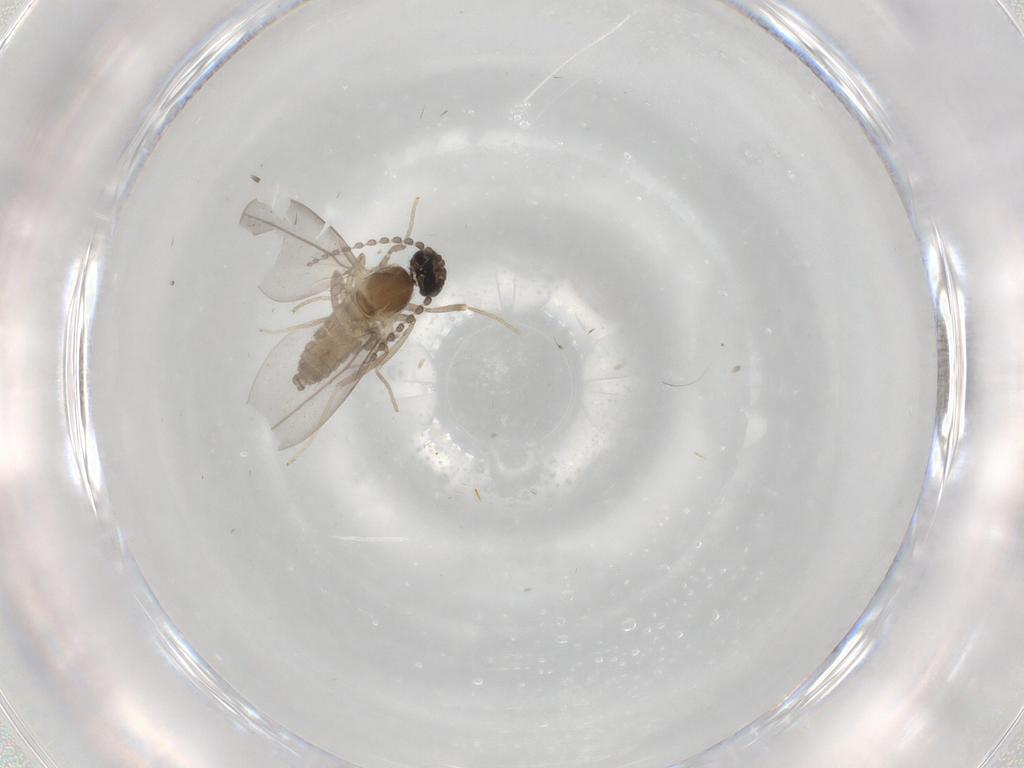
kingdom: Animalia
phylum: Arthropoda
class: Insecta
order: Diptera
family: Cecidomyiidae
